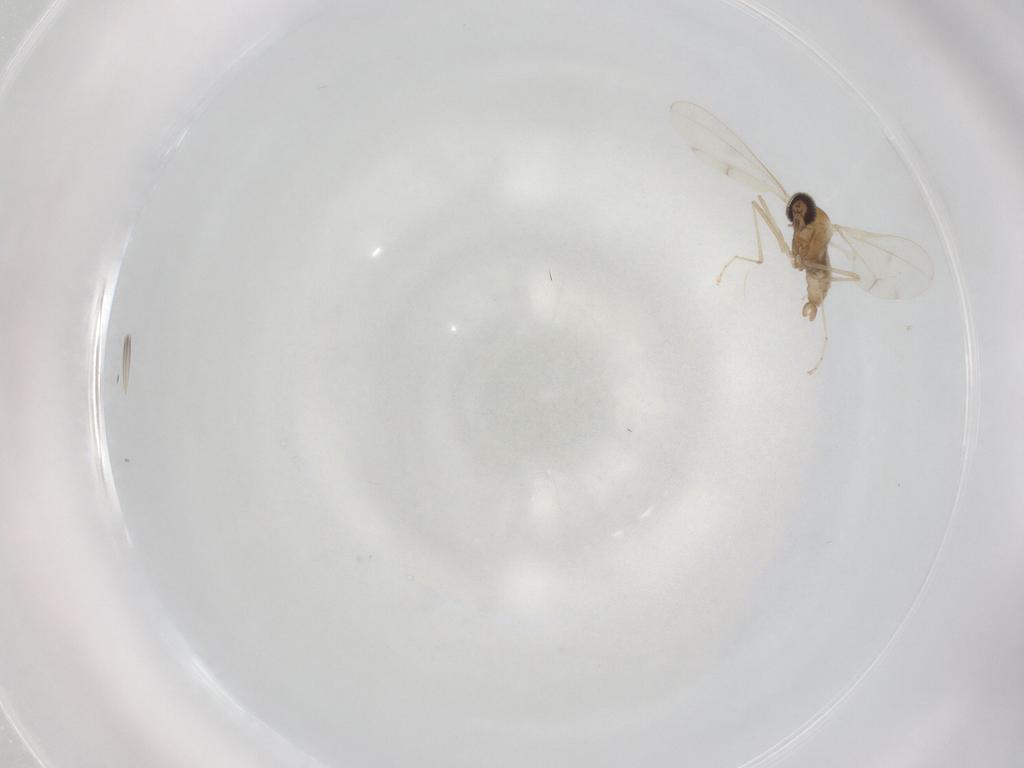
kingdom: Animalia
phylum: Arthropoda
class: Insecta
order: Diptera
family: Cecidomyiidae
